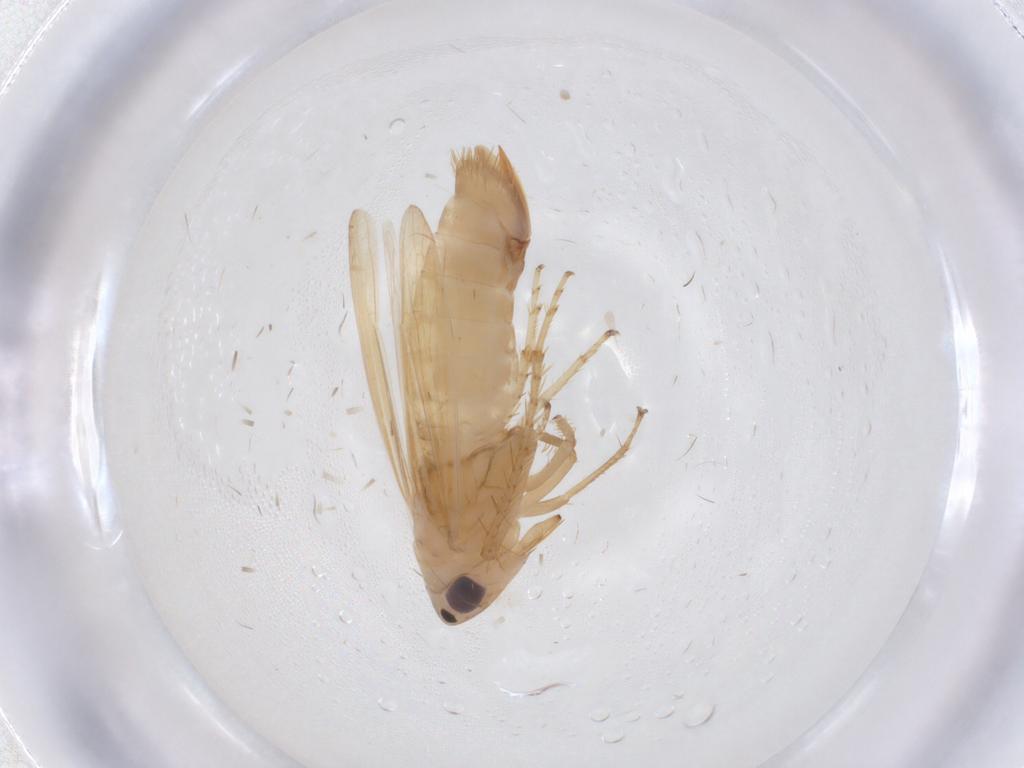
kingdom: Animalia
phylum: Arthropoda
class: Insecta
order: Hemiptera
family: Cicadellidae
